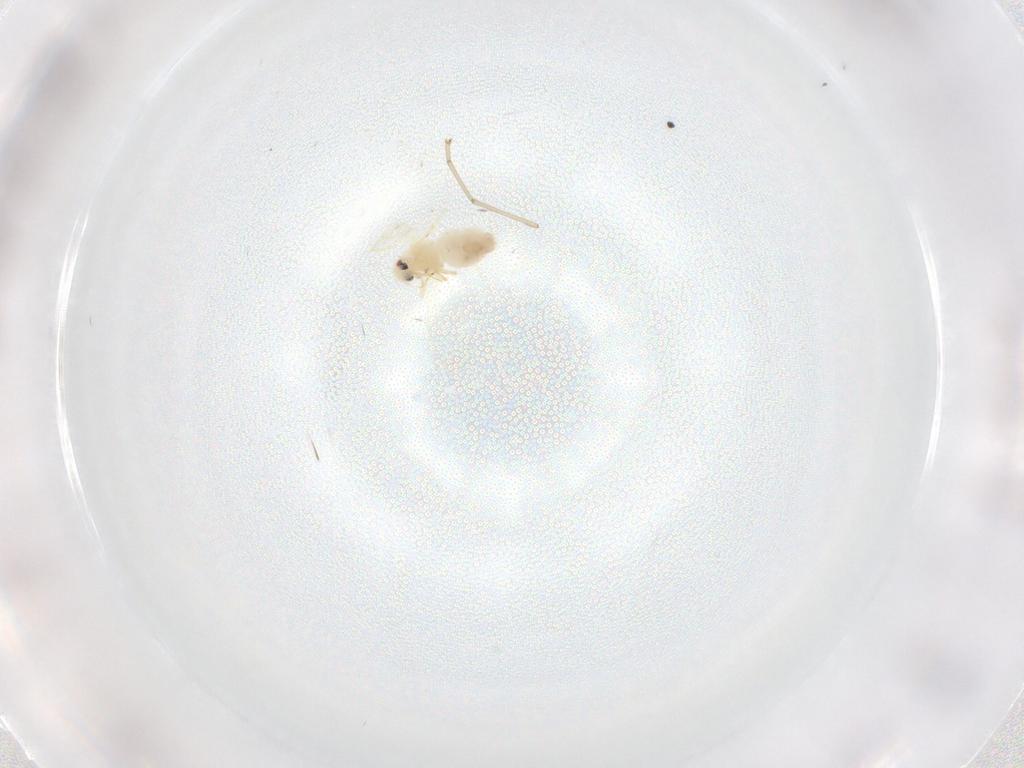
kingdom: Animalia
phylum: Arthropoda
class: Insecta
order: Hemiptera
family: Aleyrodidae
